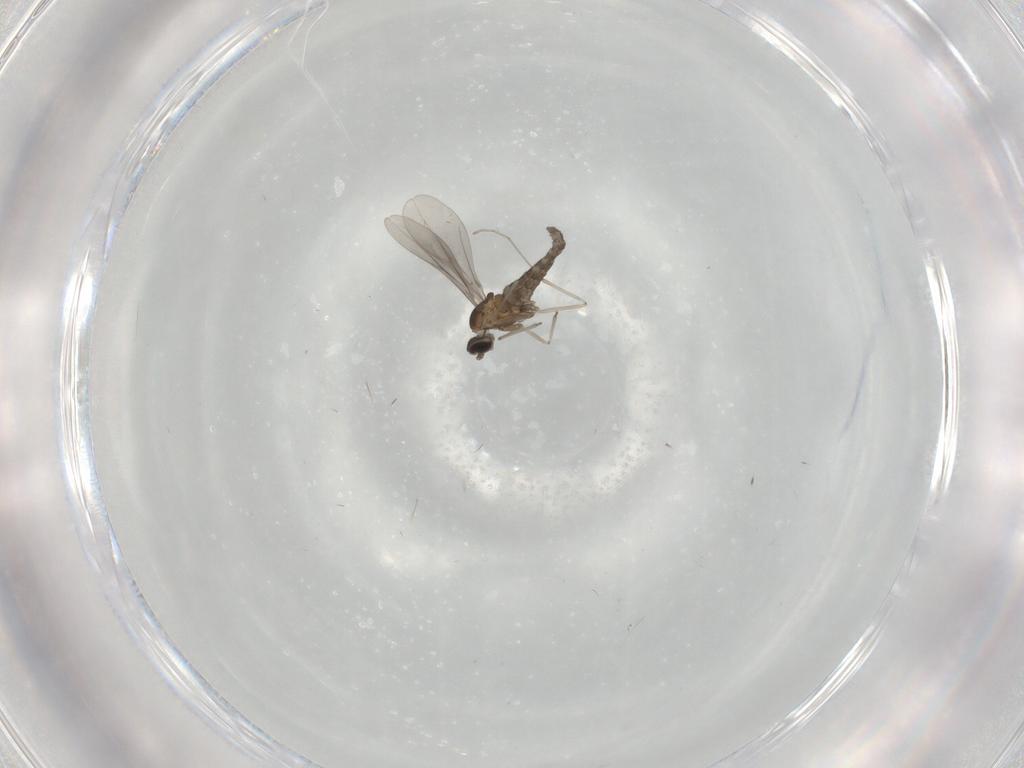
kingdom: Animalia
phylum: Arthropoda
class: Insecta
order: Diptera
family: Cecidomyiidae
